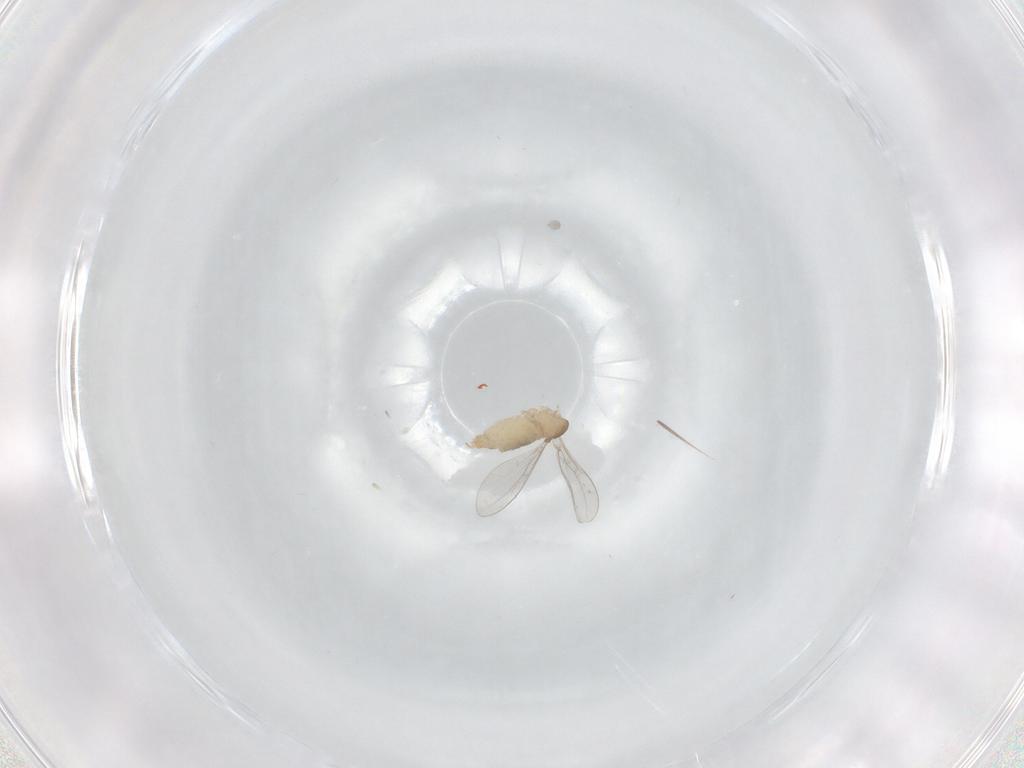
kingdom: Animalia
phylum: Arthropoda
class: Insecta
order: Diptera
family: Cecidomyiidae
